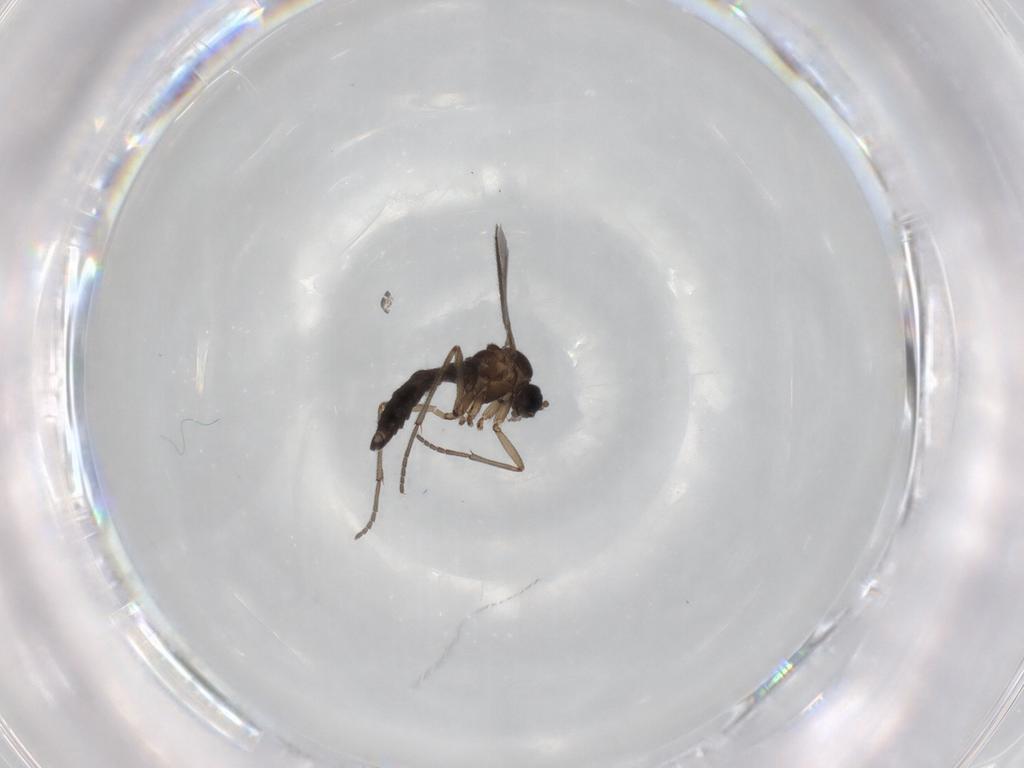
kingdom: Animalia
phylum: Arthropoda
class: Insecta
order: Diptera
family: Sciaridae
